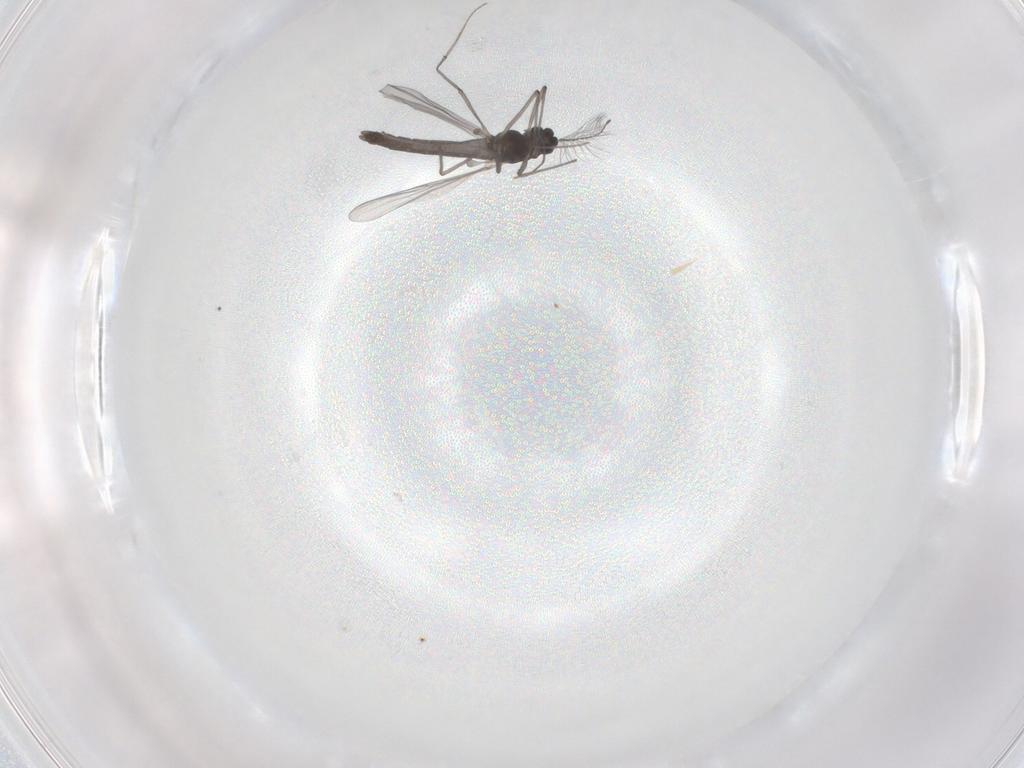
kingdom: Animalia
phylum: Arthropoda
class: Insecta
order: Diptera
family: Chironomidae
